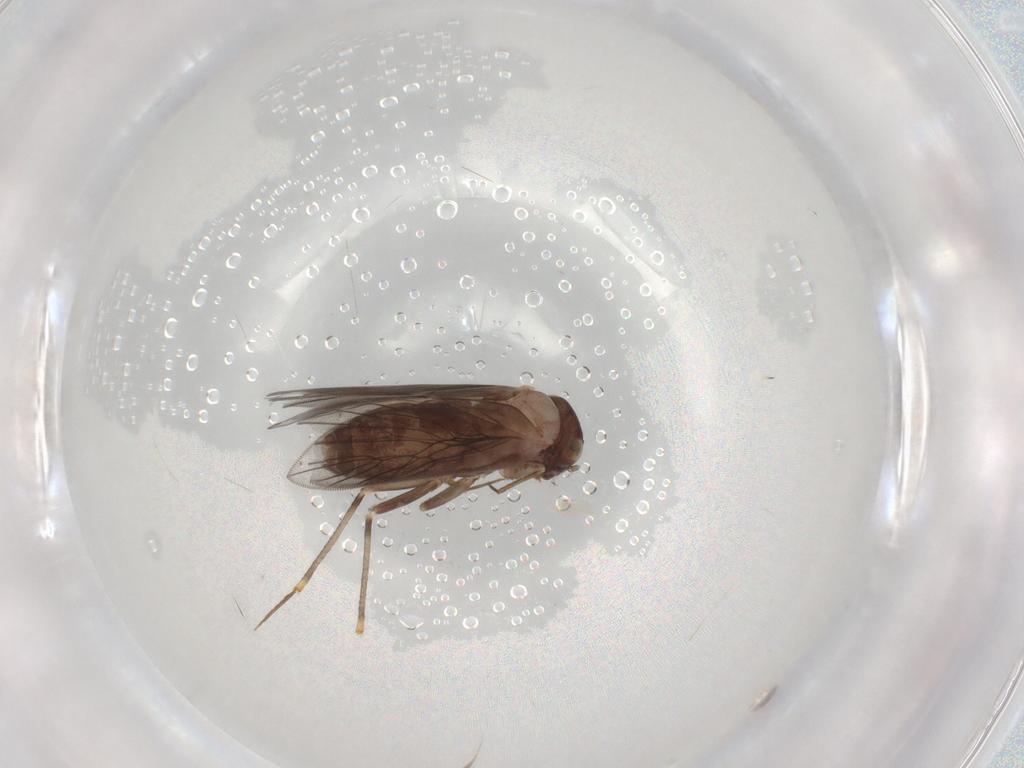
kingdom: Animalia
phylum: Arthropoda
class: Insecta
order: Psocodea
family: Lepidopsocidae
